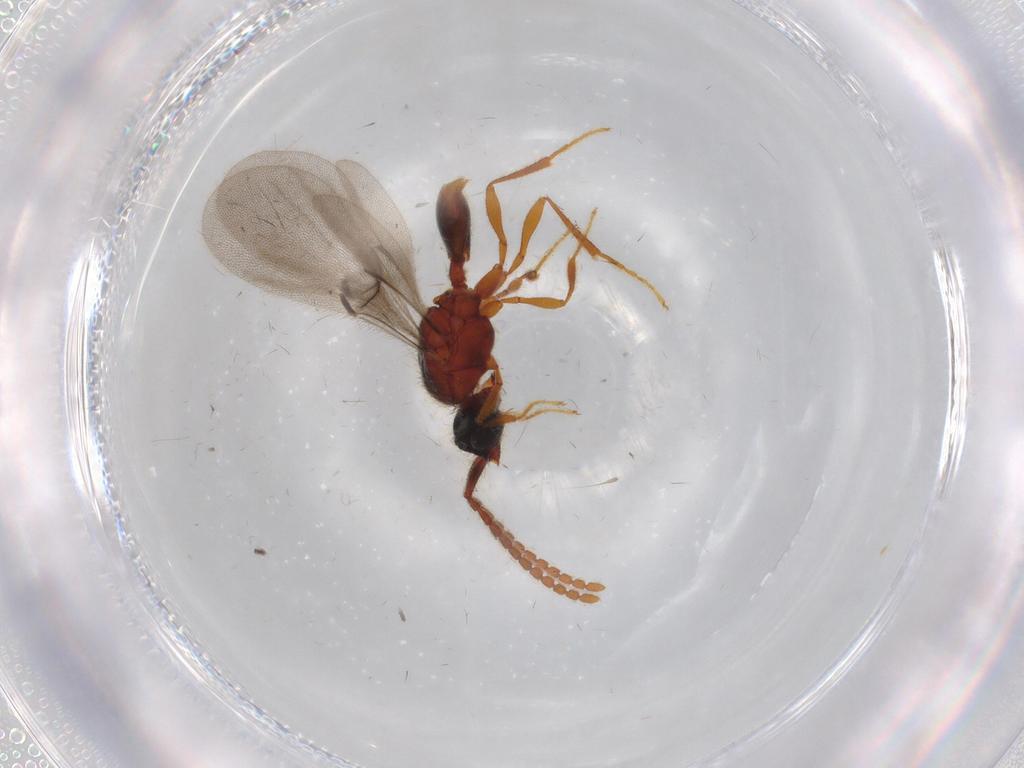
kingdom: Animalia
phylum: Arthropoda
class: Insecta
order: Hymenoptera
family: Diapriidae
